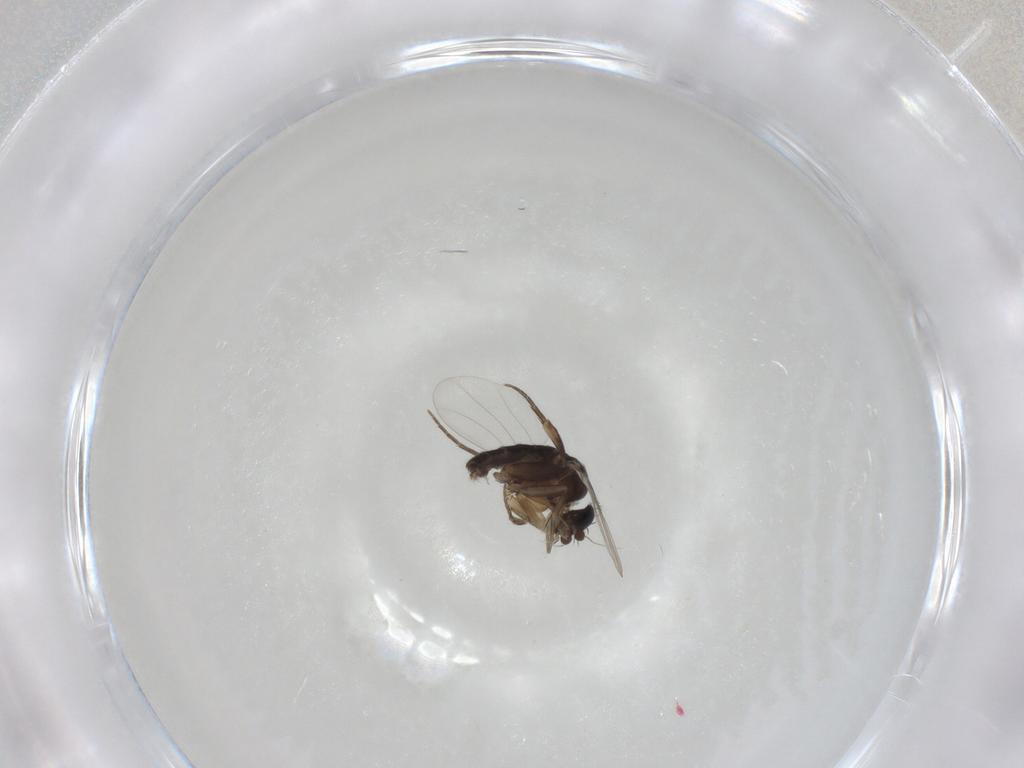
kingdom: Animalia
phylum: Arthropoda
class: Insecta
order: Diptera
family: Phoridae
